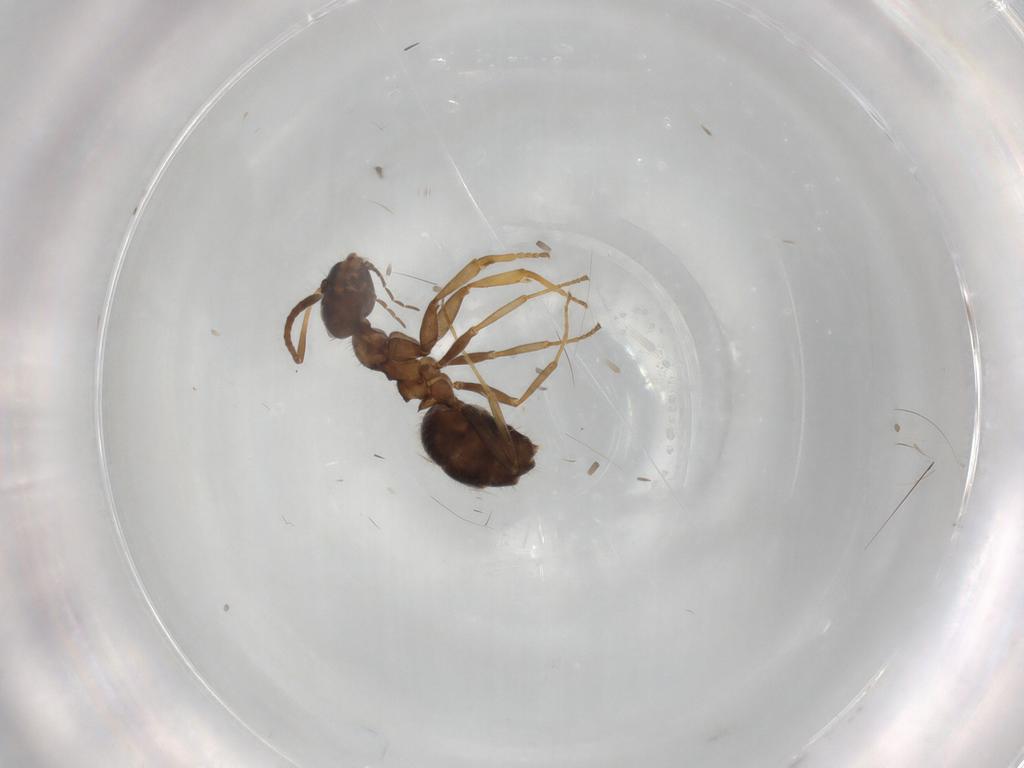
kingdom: Animalia
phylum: Arthropoda
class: Insecta
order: Hymenoptera
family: Formicidae
